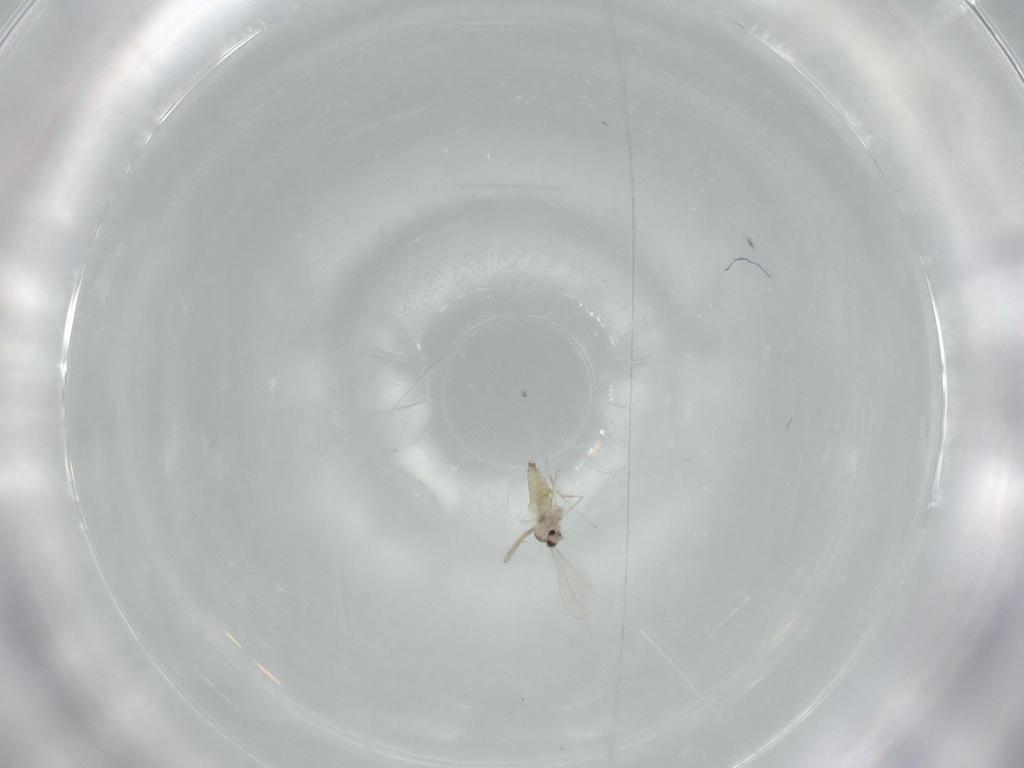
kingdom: Animalia
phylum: Arthropoda
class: Insecta
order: Diptera
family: Cecidomyiidae
